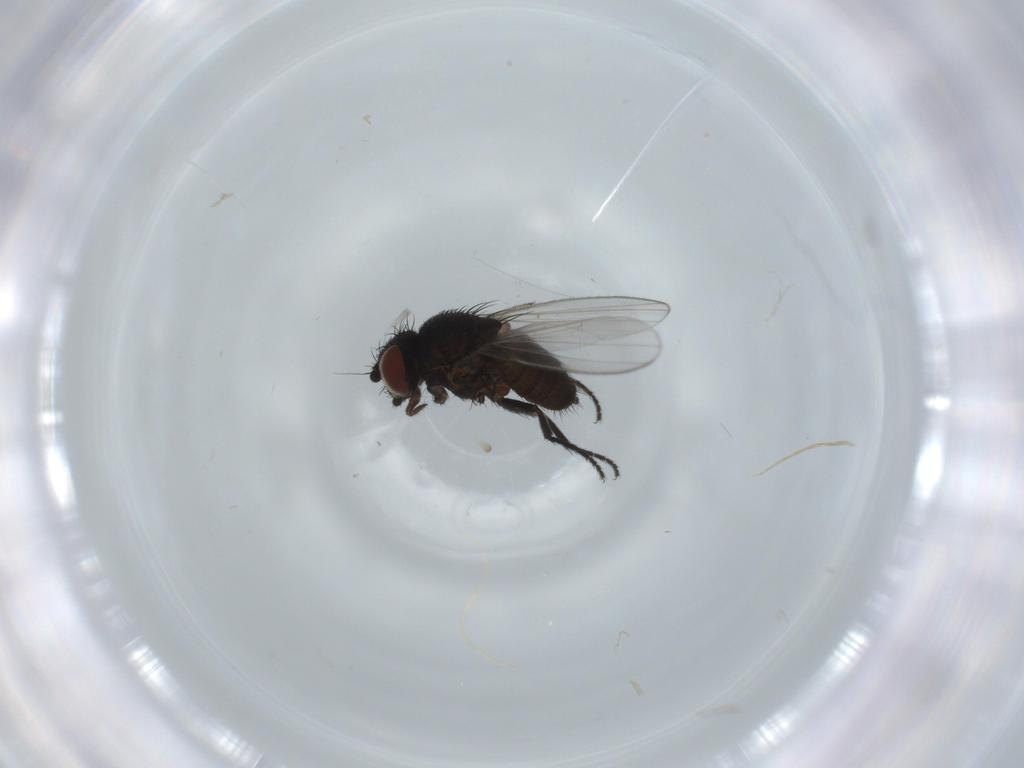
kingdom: Animalia
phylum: Arthropoda
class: Insecta
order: Diptera
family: Milichiidae
